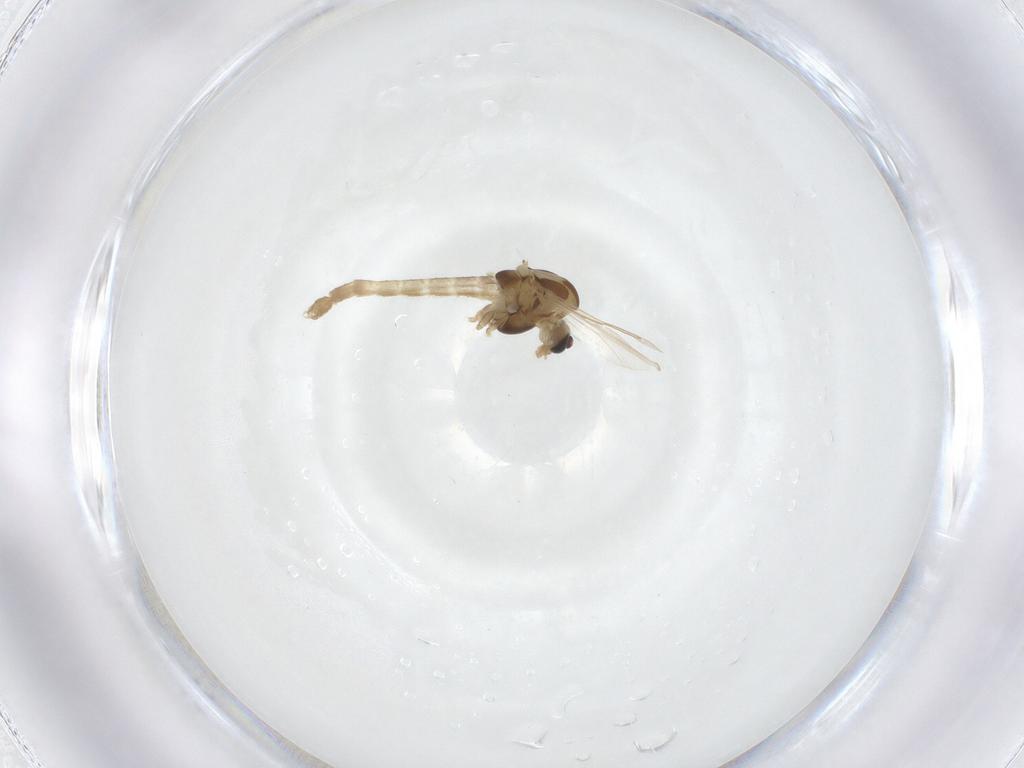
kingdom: Animalia
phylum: Arthropoda
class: Insecta
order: Diptera
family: Chironomidae
